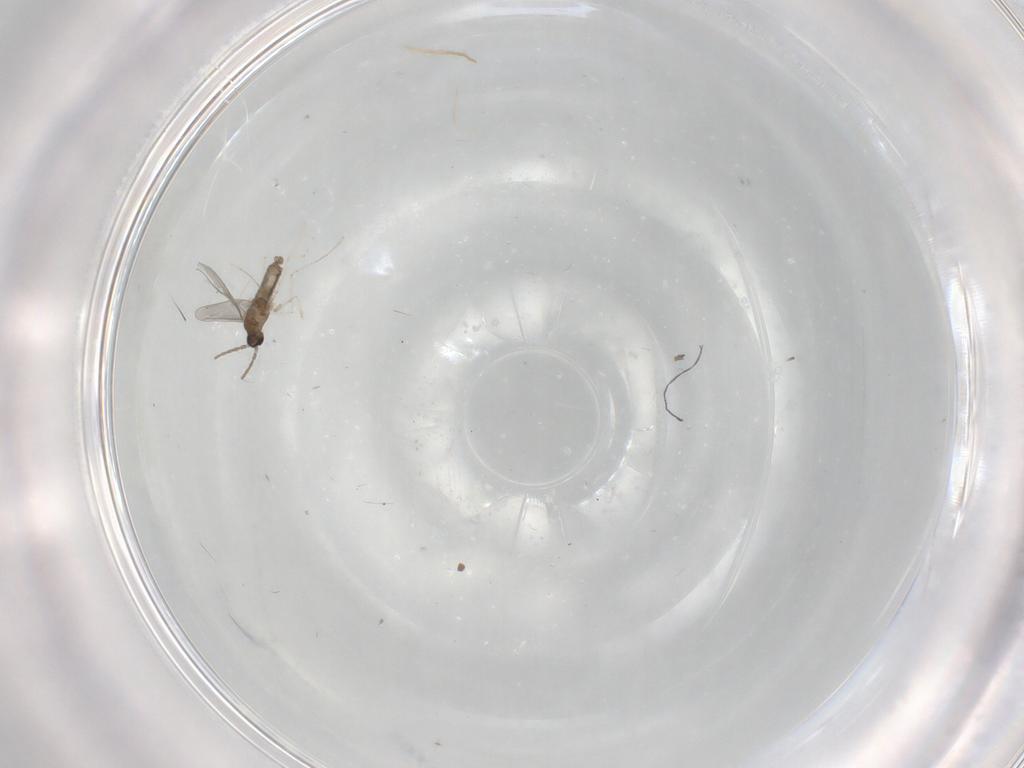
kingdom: Animalia
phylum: Arthropoda
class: Insecta
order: Diptera
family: Cecidomyiidae
